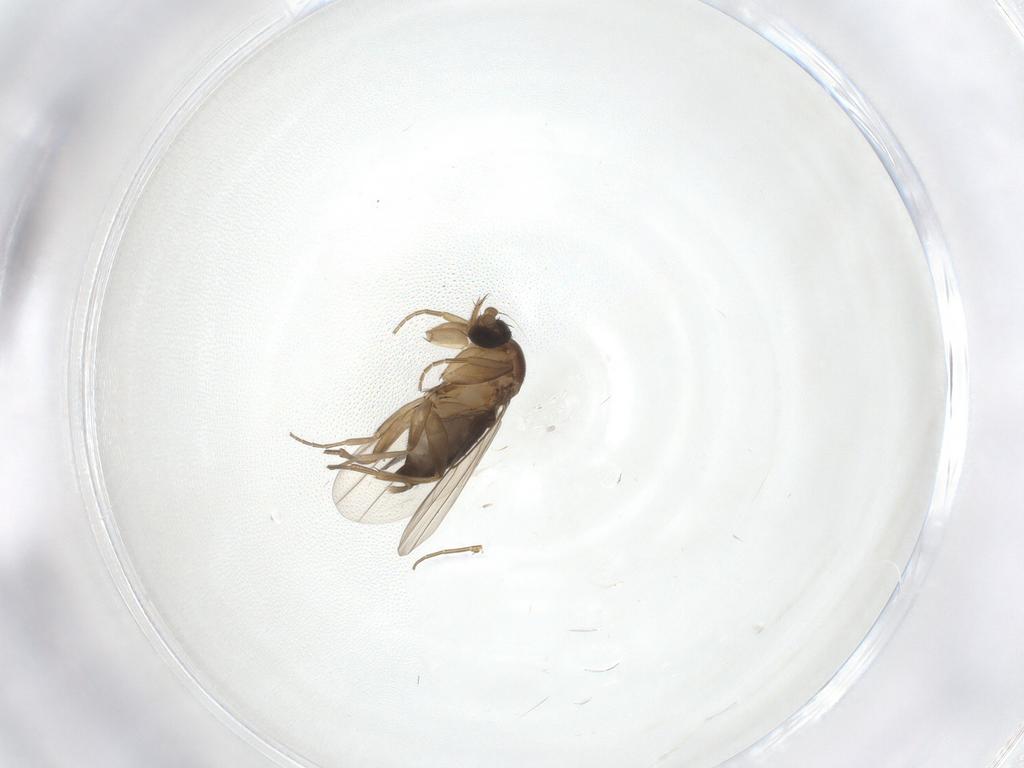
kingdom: Animalia
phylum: Arthropoda
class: Insecta
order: Diptera
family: Phoridae
